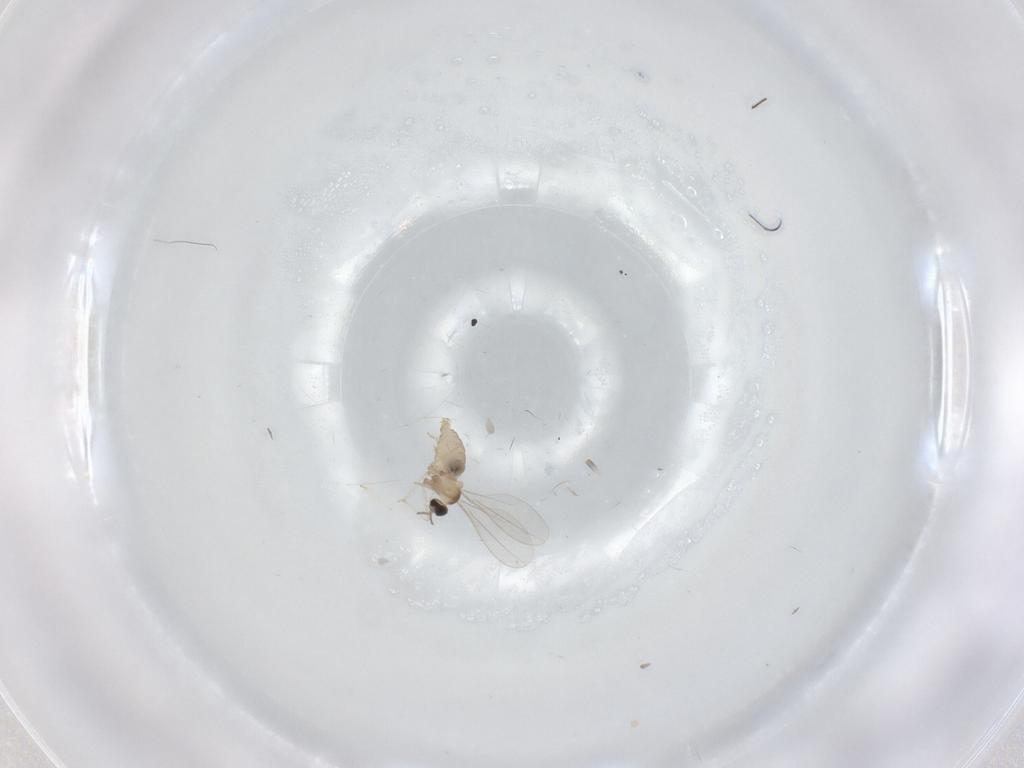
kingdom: Animalia
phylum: Arthropoda
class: Insecta
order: Diptera
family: Cecidomyiidae
